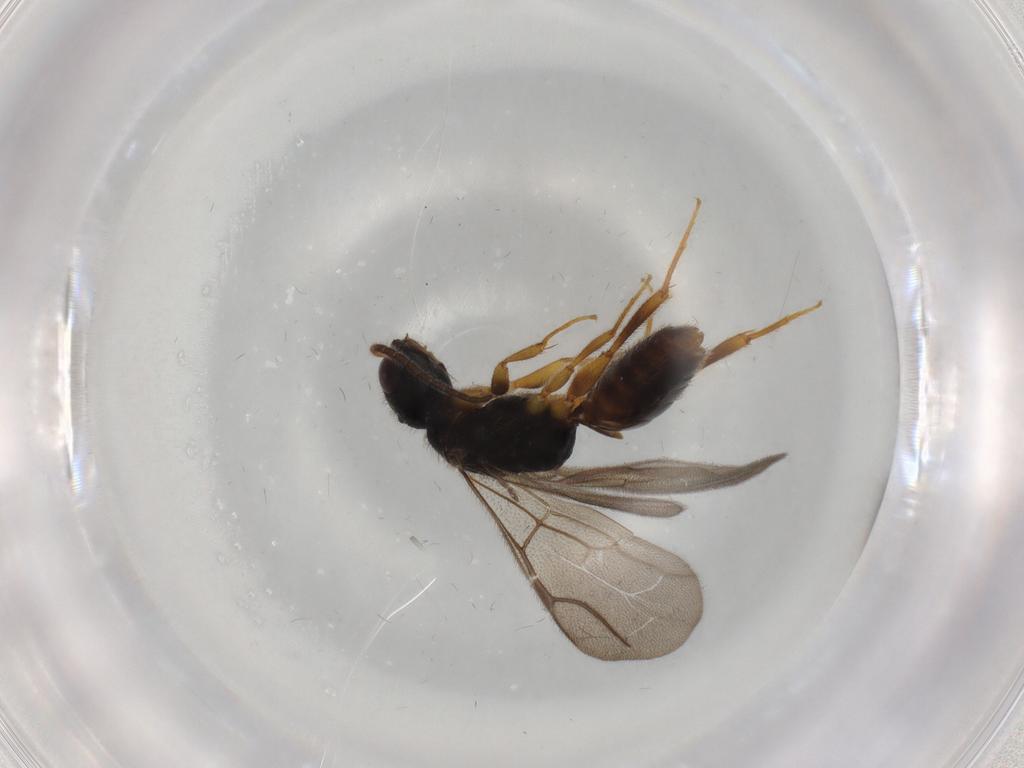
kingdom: Animalia
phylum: Arthropoda
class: Insecta
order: Hymenoptera
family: Bethylidae
